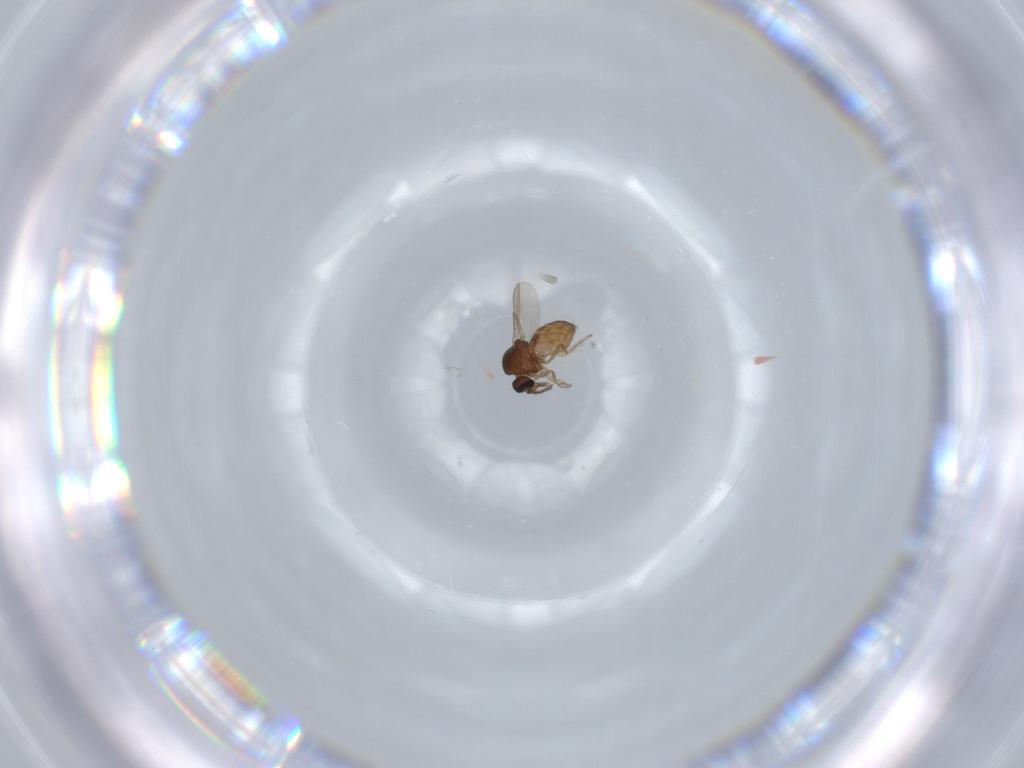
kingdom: Animalia
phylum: Arthropoda
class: Insecta
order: Diptera
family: Ceratopogonidae
